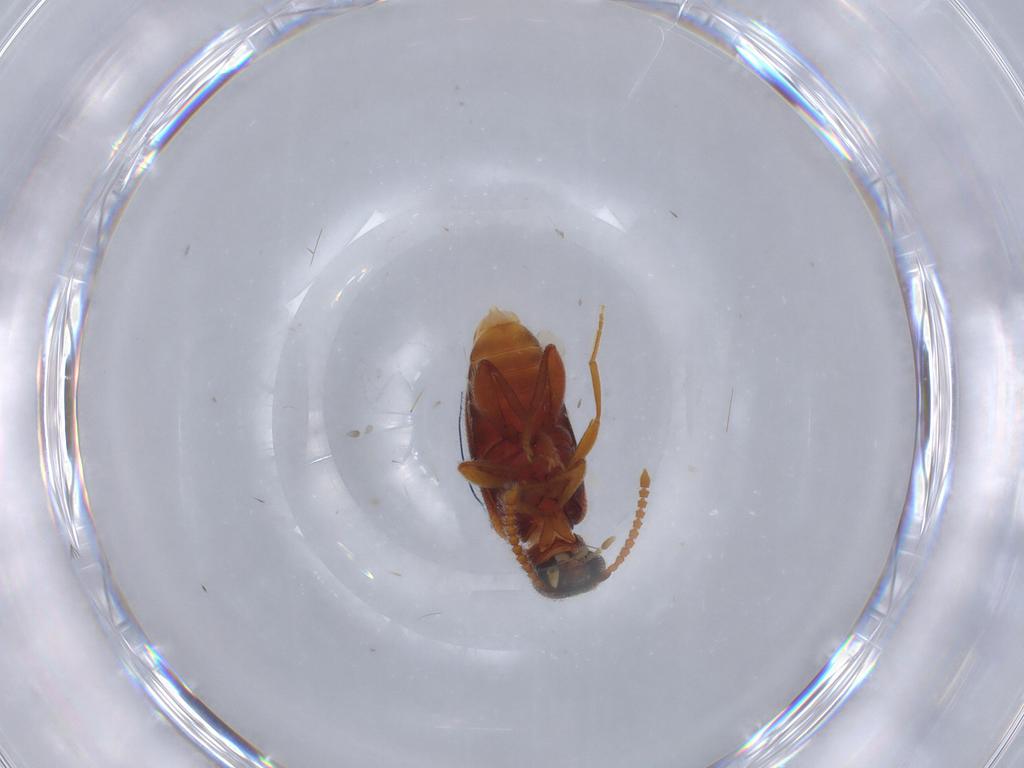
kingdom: Animalia
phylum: Arthropoda
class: Insecta
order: Coleoptera
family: Aderidae
